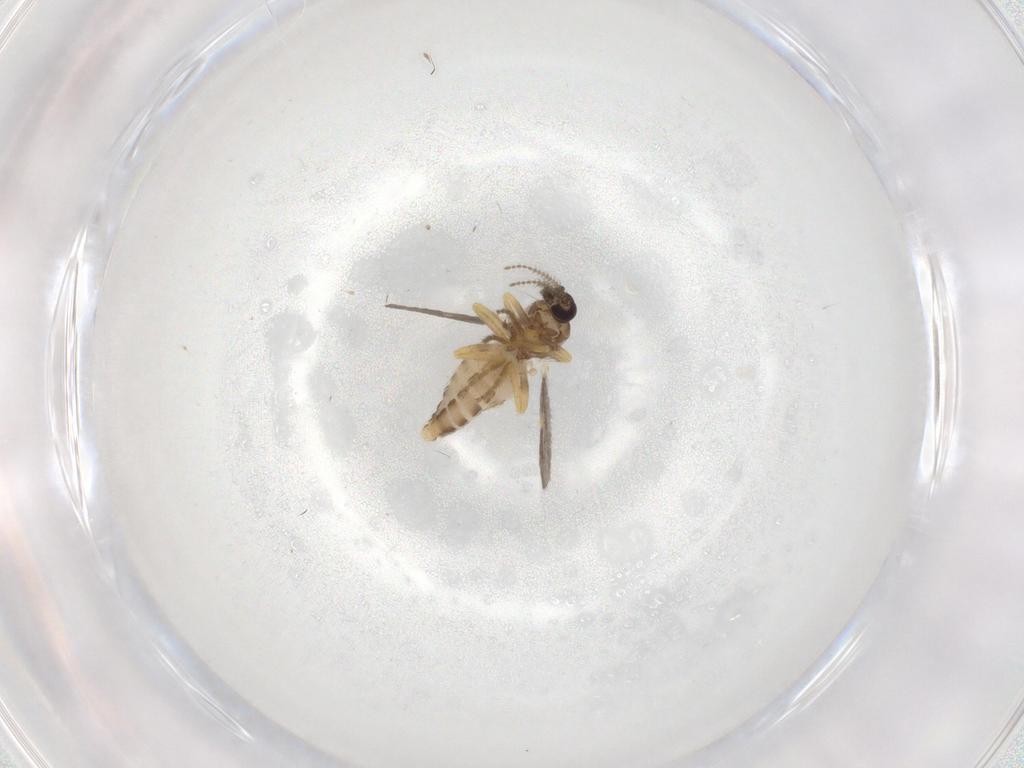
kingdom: Animalia
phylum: Arthropoda
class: Insecta
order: Diptera
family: Ceratopogonidae
